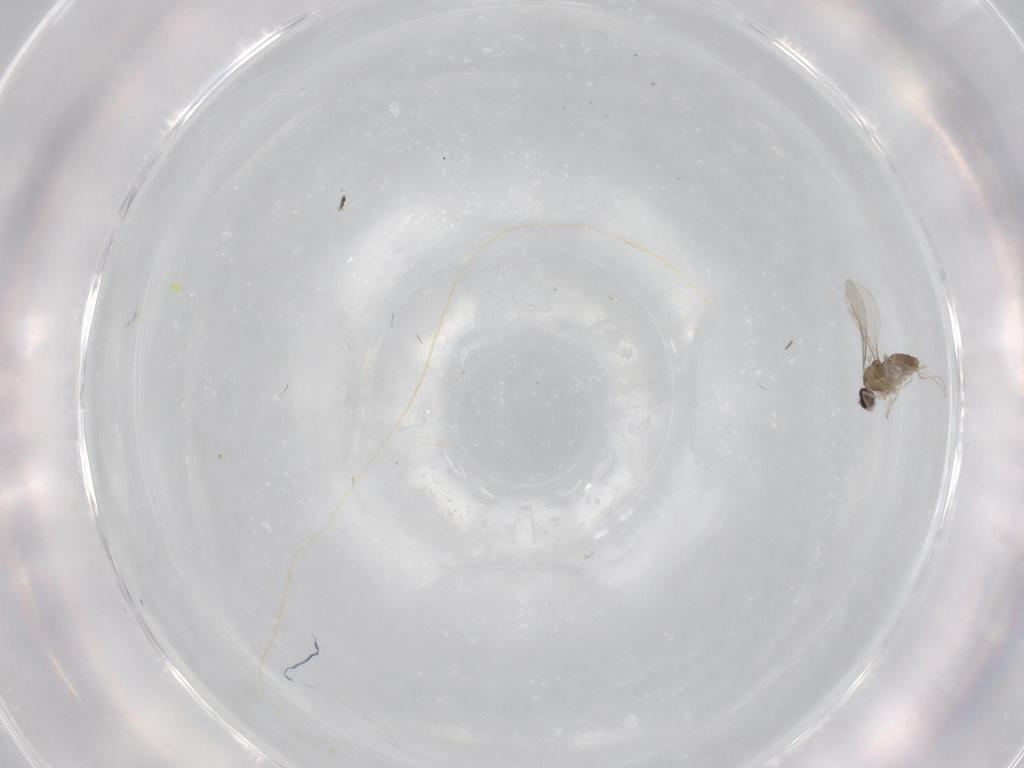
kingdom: Animalia
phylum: Arthropoda
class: Insecta
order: Diptera
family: Cecidomyiidae
